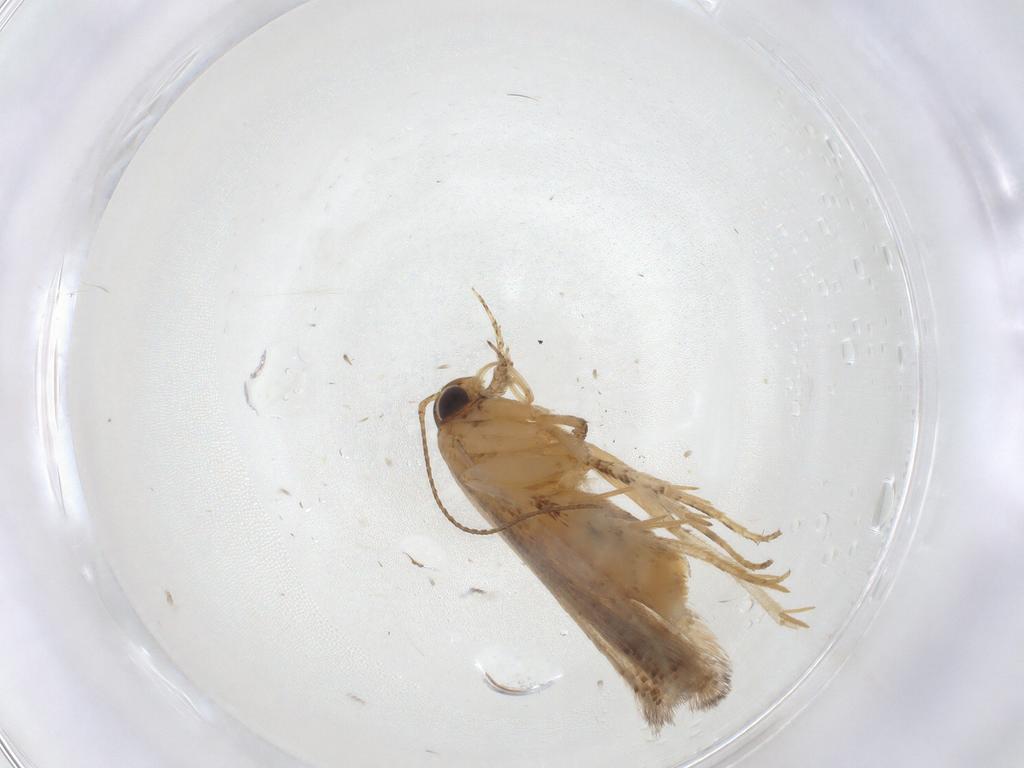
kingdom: Animalia
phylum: Arthropoda
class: Insecta
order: Lepidoptera
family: Gelechiidae
